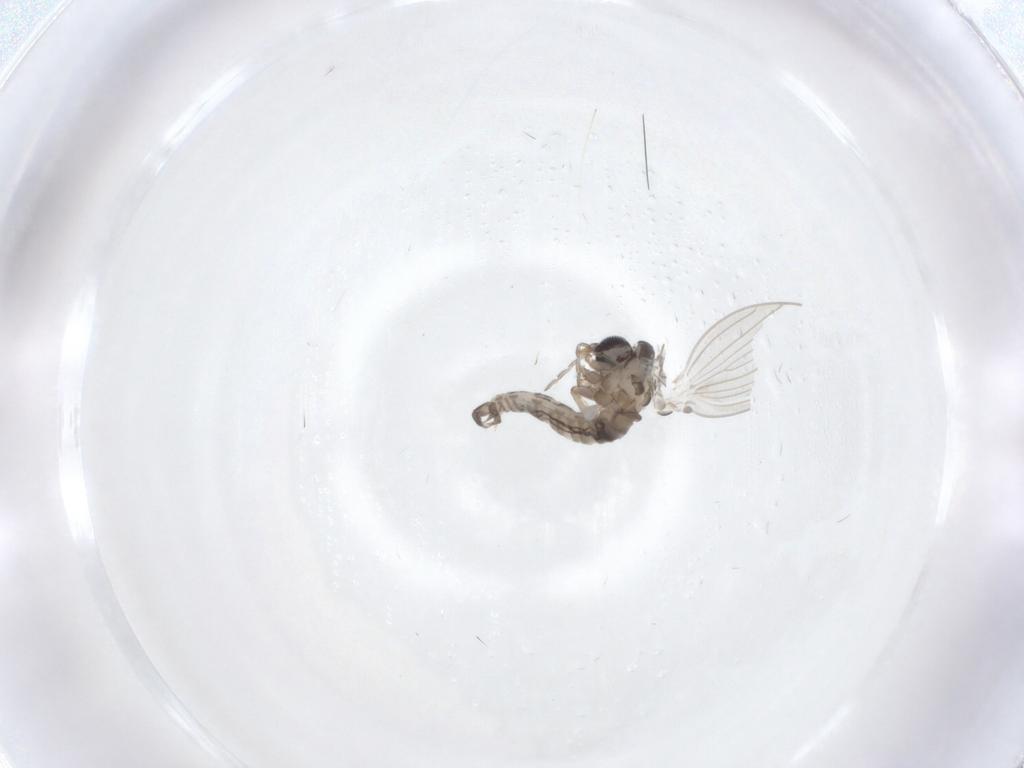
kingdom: Animalia
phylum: Arthropoda
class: Insecta
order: Diptera
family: Psychodidae
